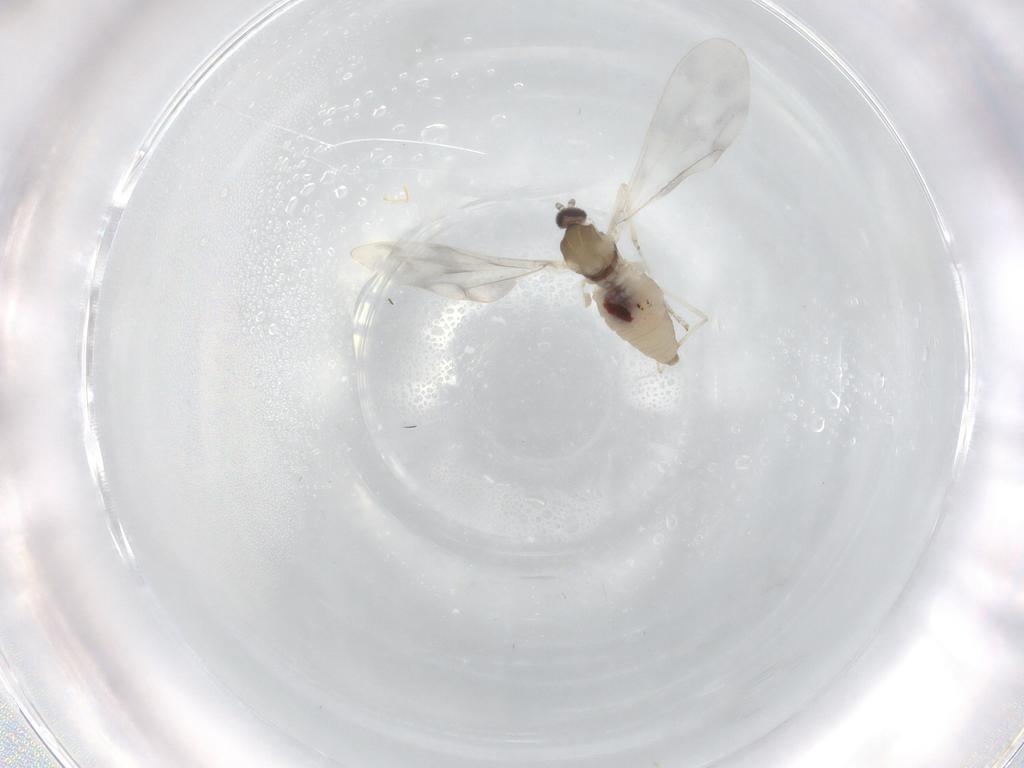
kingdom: Animalia
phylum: Arthropoda
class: Insecta
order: Diptera
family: Cecidomyiidae
